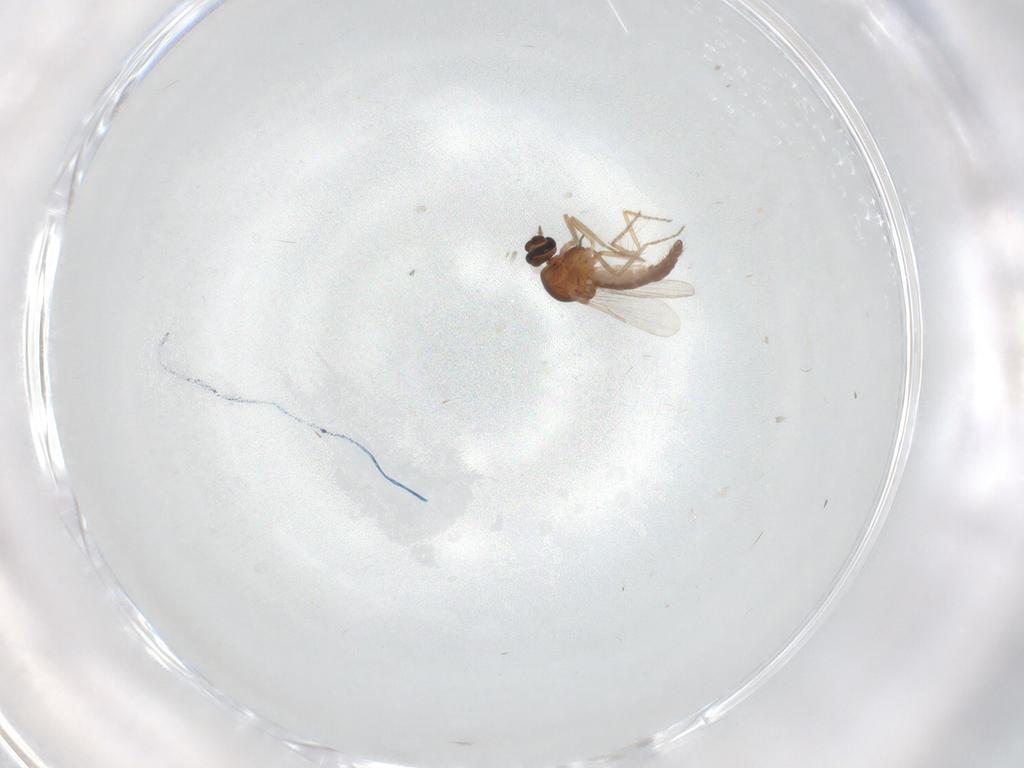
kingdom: Animalia
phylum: Arthropoda
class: Insecta
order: Diptera
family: Ceratopogonidae
